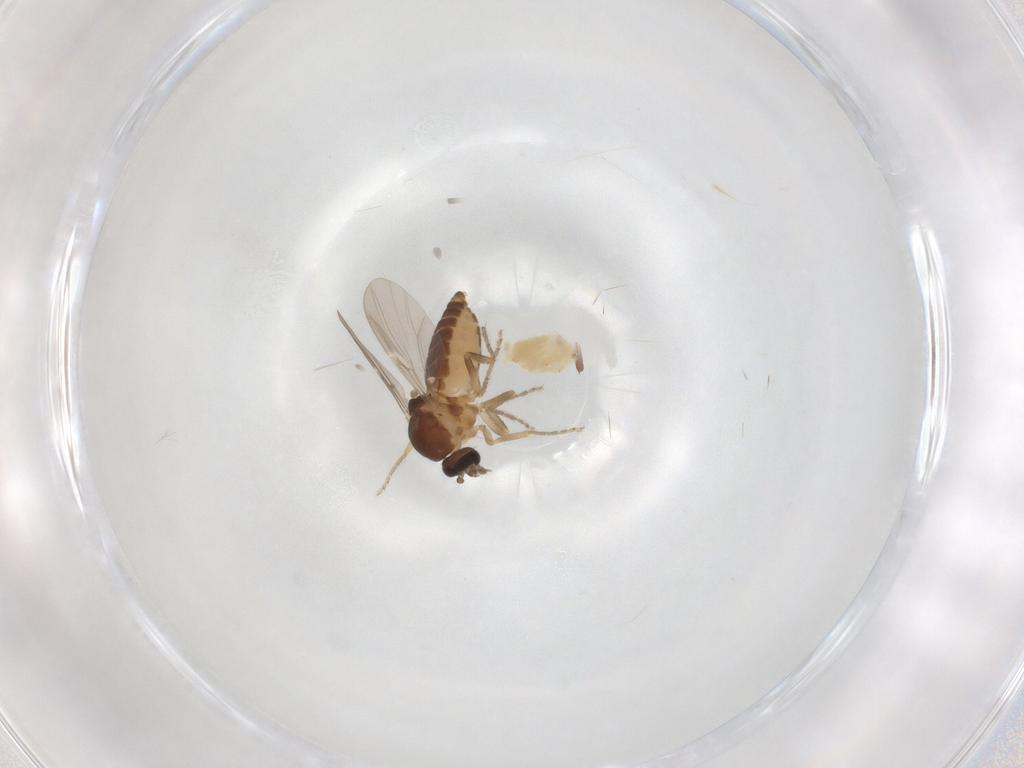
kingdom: Animalia
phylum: Arthropoda
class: Insecta
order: Diptera
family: Ceratopogonidae
